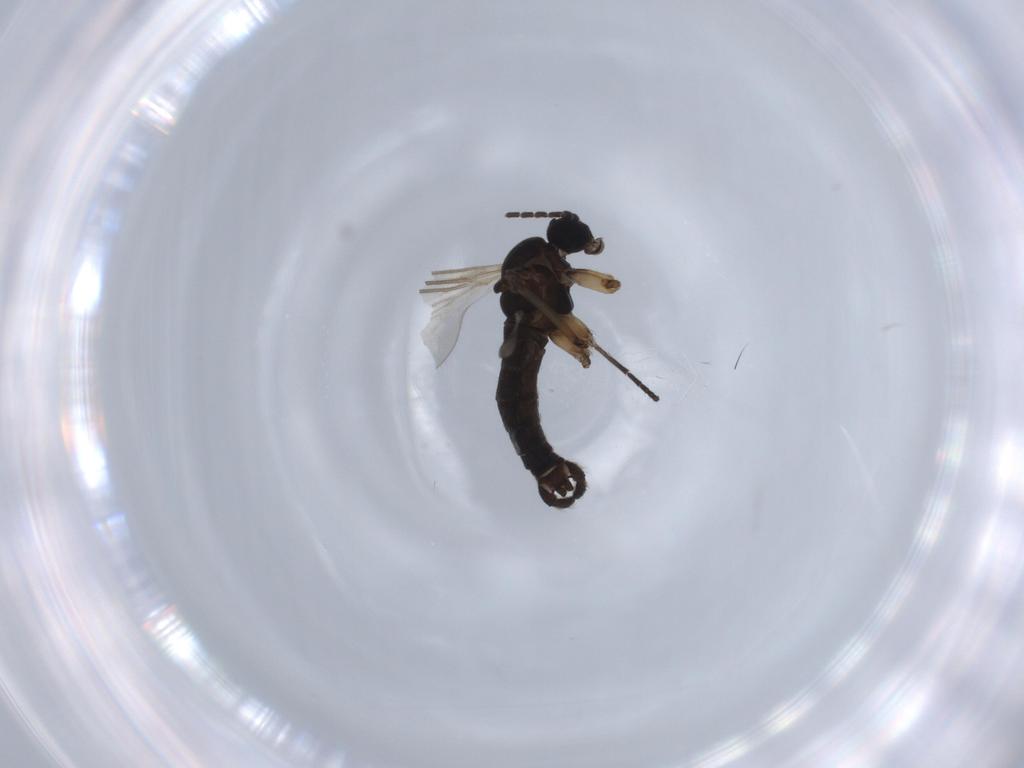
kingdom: Animalia
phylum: Arthropoda
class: Insecta
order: Diptera
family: Sciaridae
